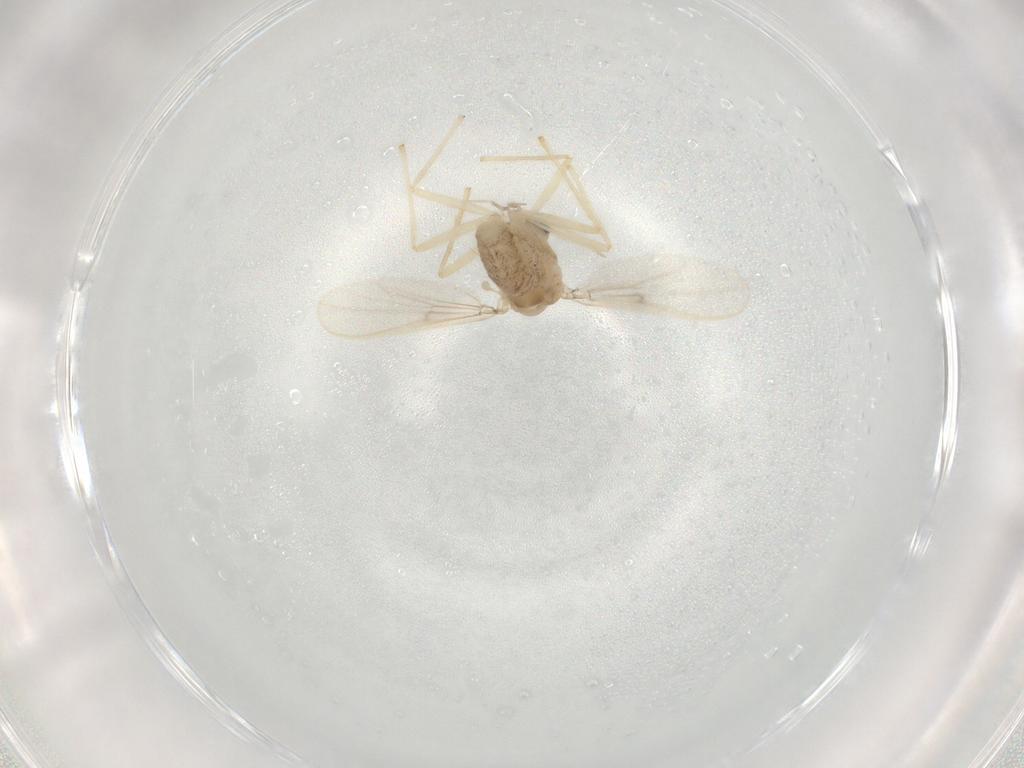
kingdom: Animalia
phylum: Arthropoda
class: Insecta
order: Diptera
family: Chironomidae
